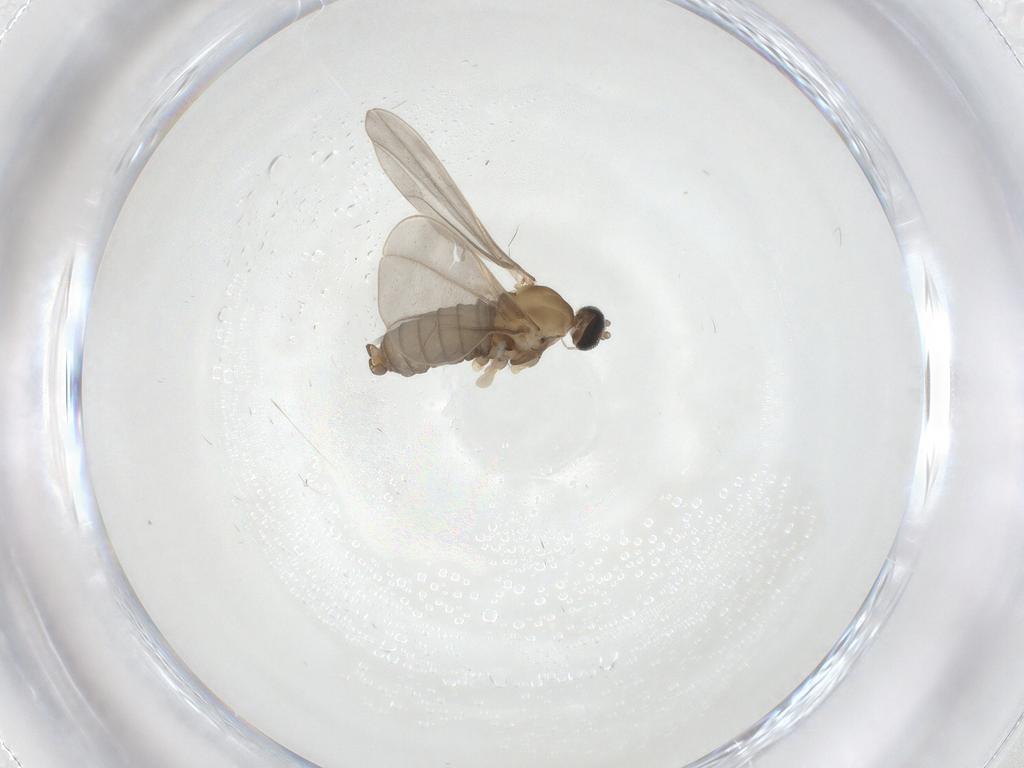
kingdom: Animalia
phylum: Arthropoda
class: Insecta
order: Diptera
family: Cecidomyiidae
